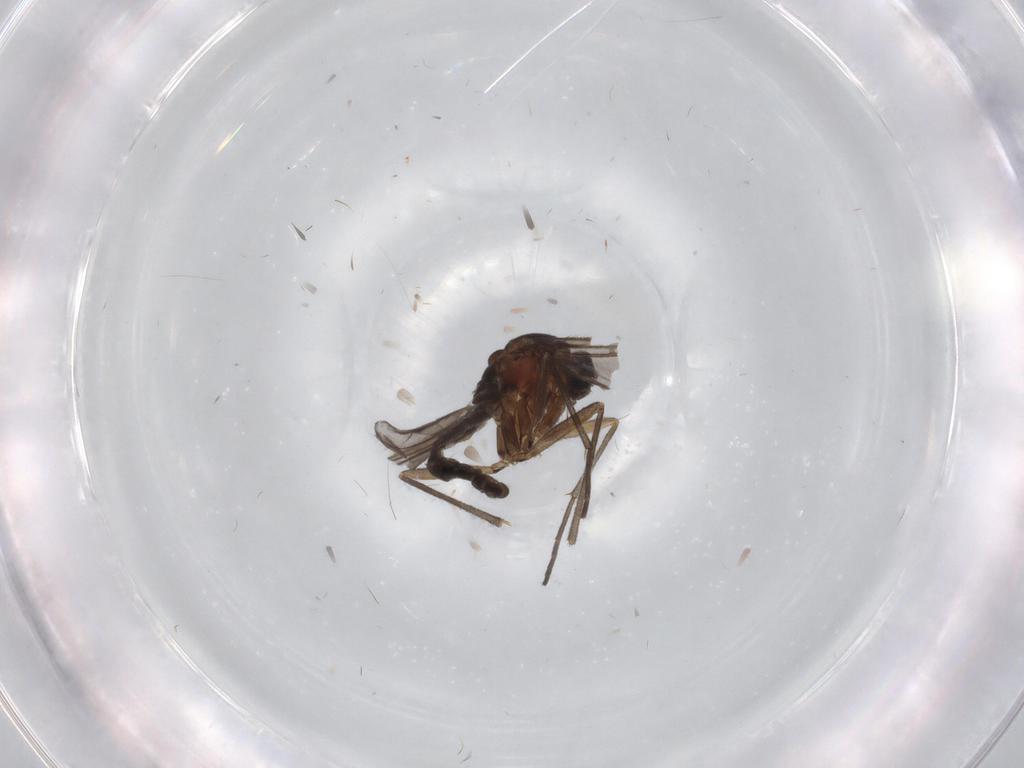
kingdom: Animalia
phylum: Arthropoda
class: Insecta
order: Diptera
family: Sciaridae
